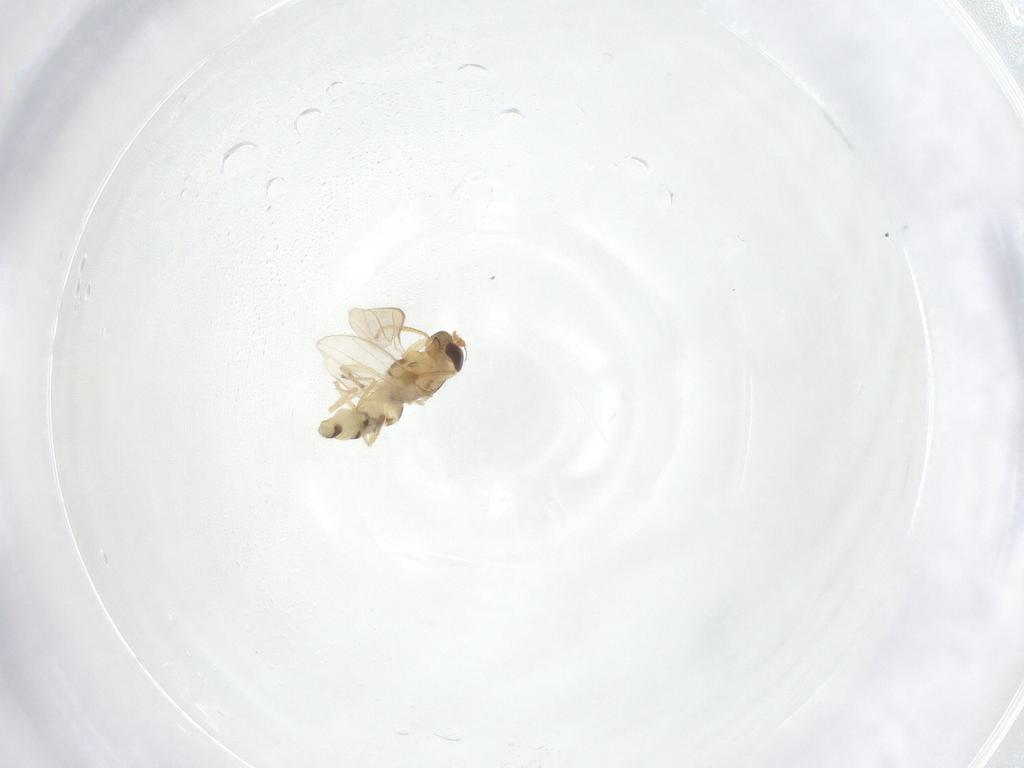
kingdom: Animalia
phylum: Arthropoda
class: Insecta
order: Diptera
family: Periscelididae
